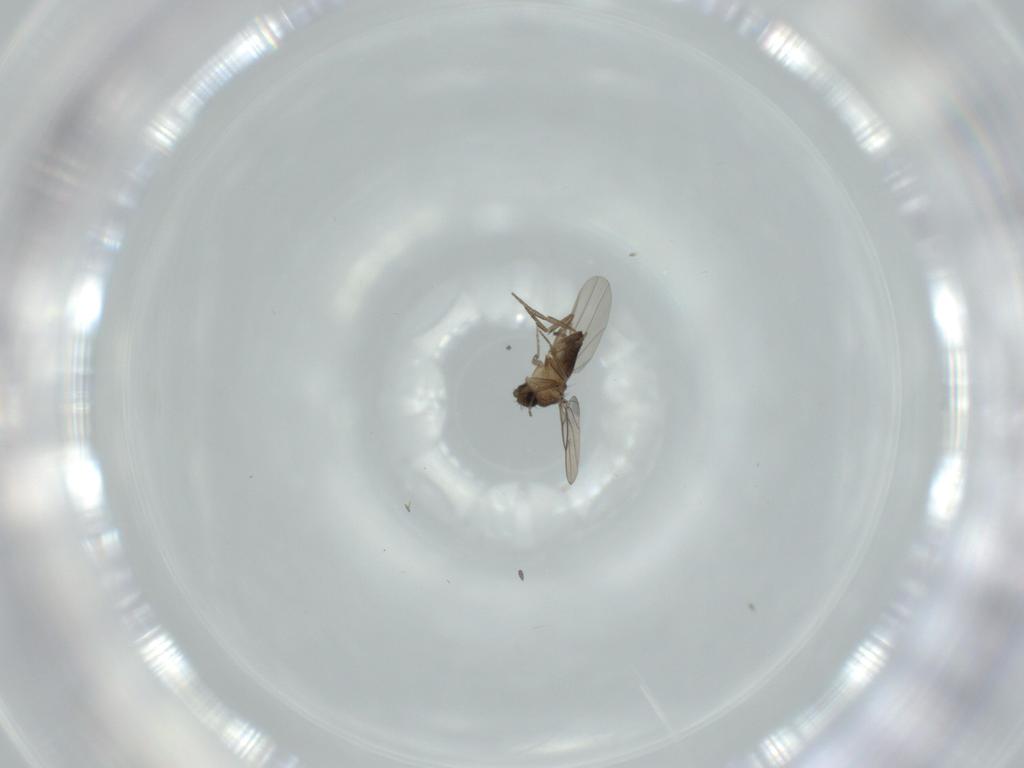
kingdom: Animalia
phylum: Arthropoda
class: Insecta
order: Diptera
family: Phoridae
